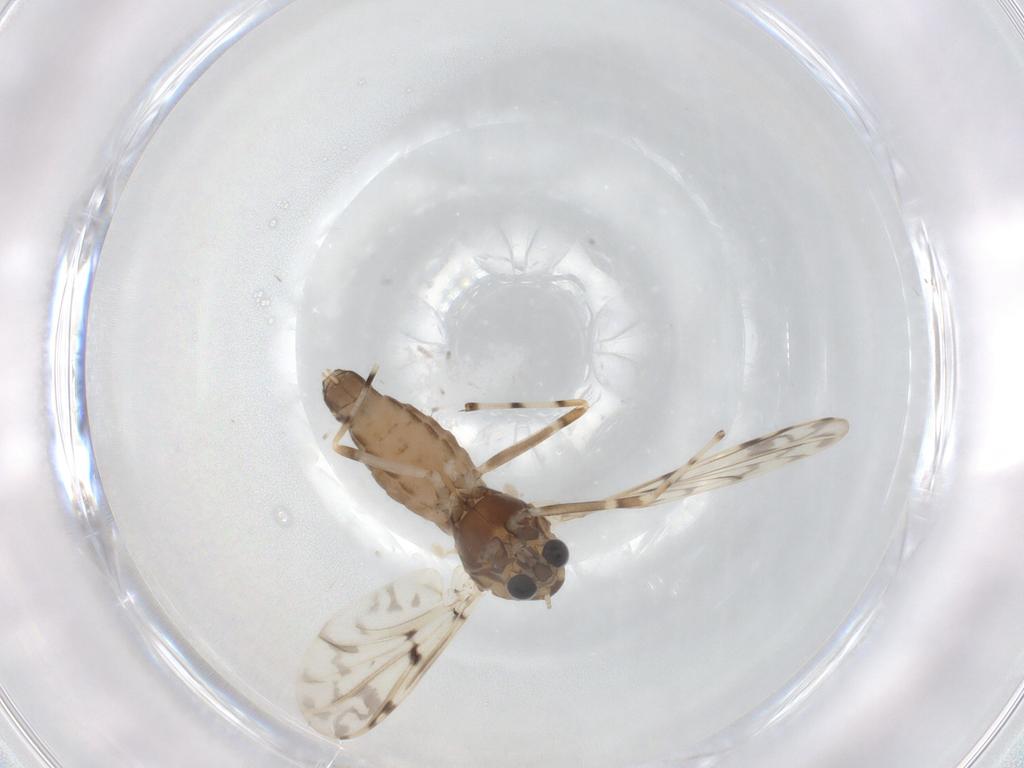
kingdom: Animalia
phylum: Arthropoda
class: Insecta
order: Diptera
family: Chironomidae
